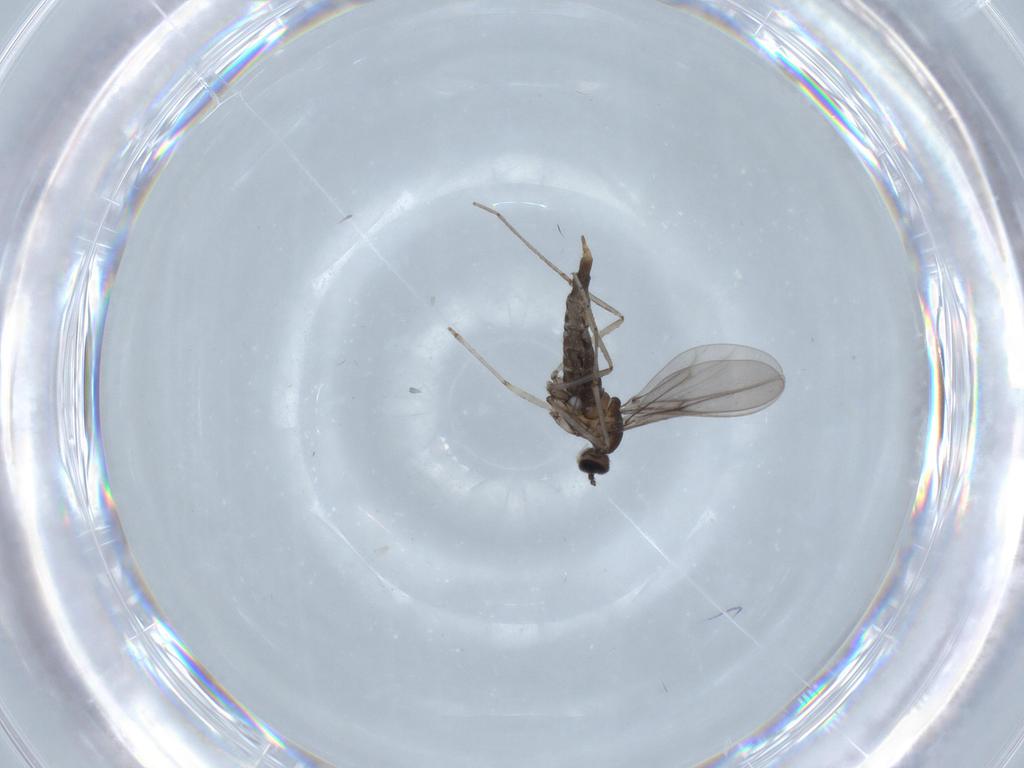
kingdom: Animalia
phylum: Arthropoda
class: Insecta
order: Diptera
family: Cecidomyiidae
